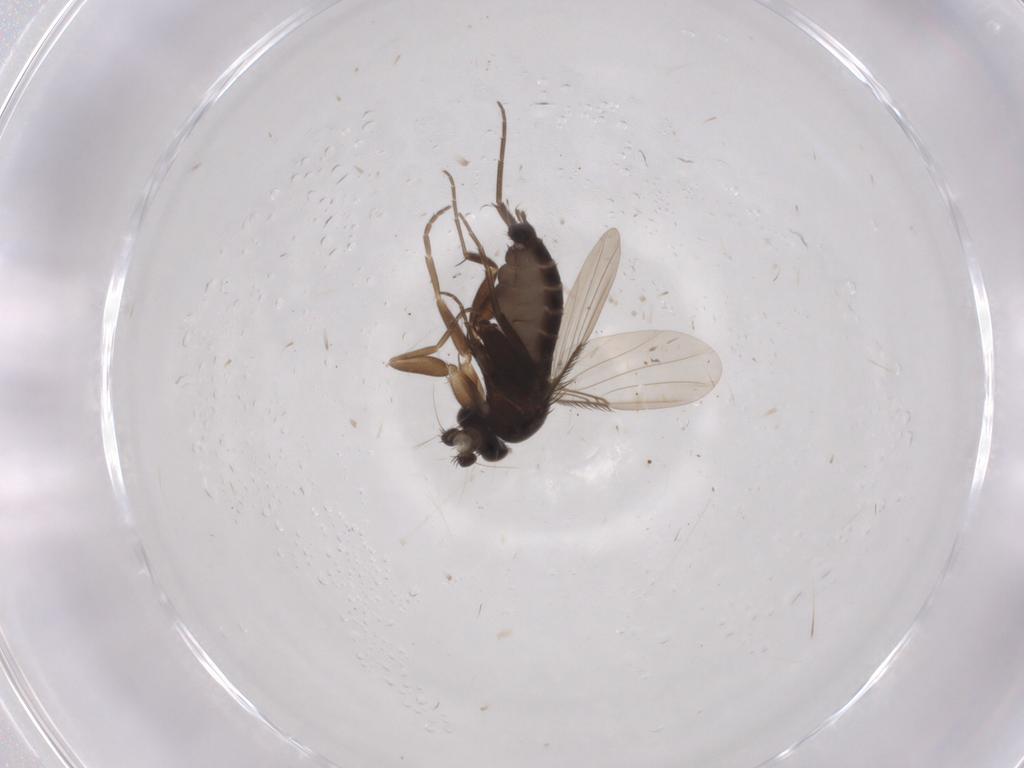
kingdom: Animalia
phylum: Arthropoda
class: Insecta
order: Diptera
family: Phoridae
